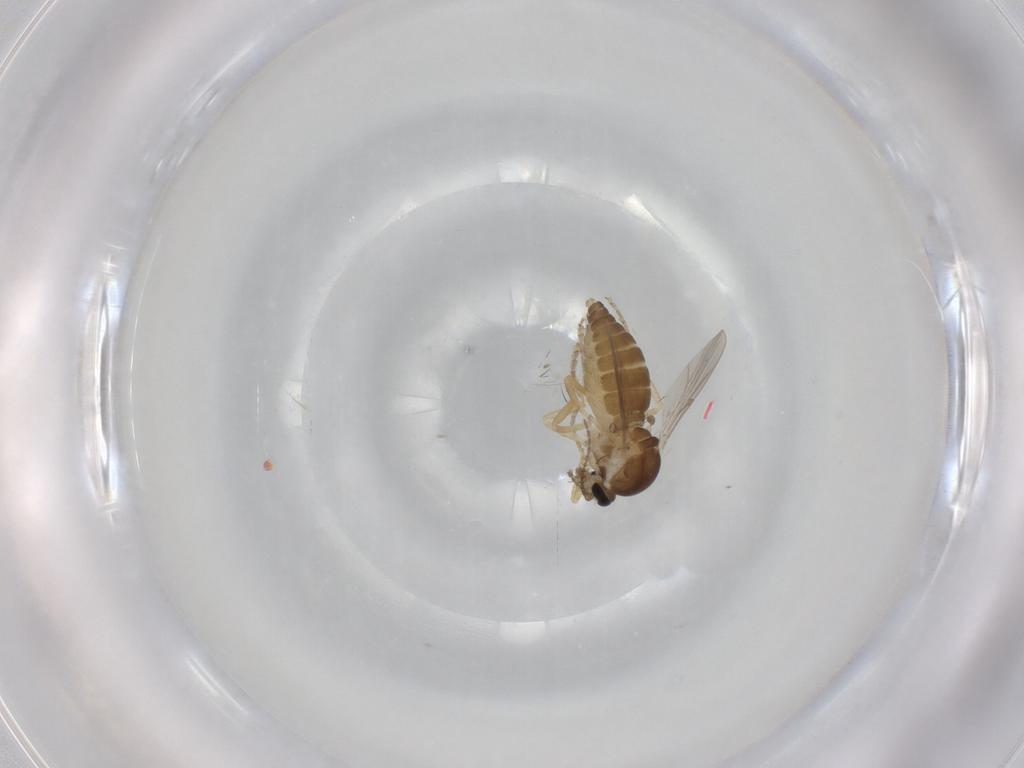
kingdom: Animalia
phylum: Arthropoda
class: Insecta
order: Diptera
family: Ceratopogonidae
